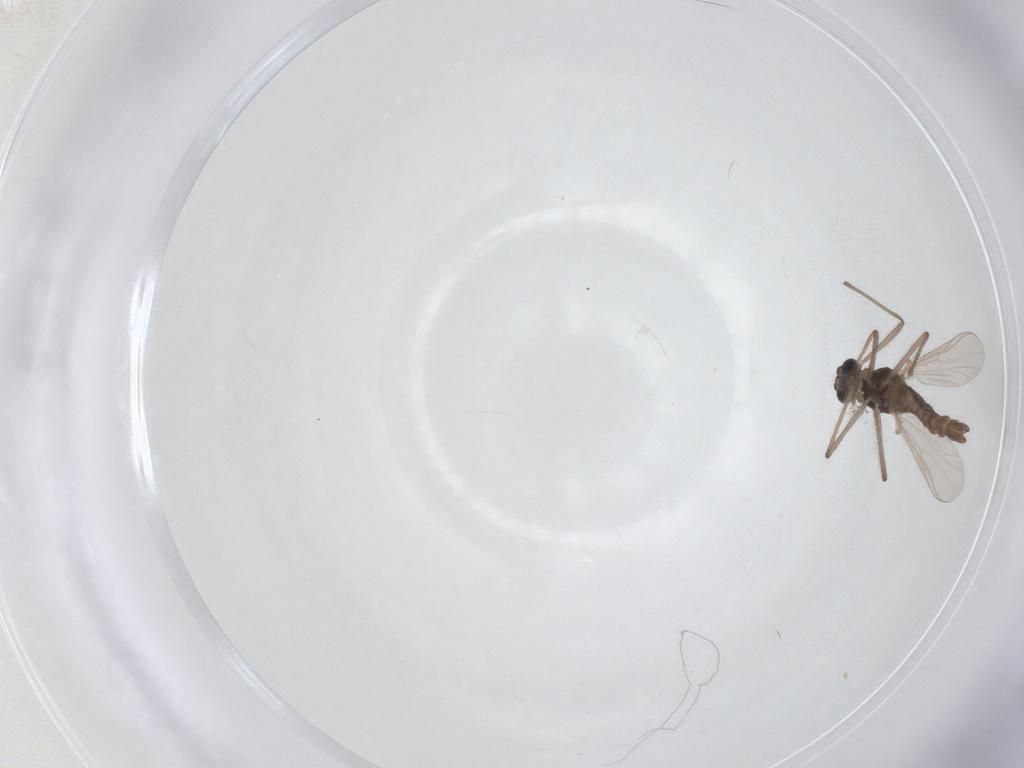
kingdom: Animalia
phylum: Arthropoda
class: Insecta
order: Diptera
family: Chironomidae
